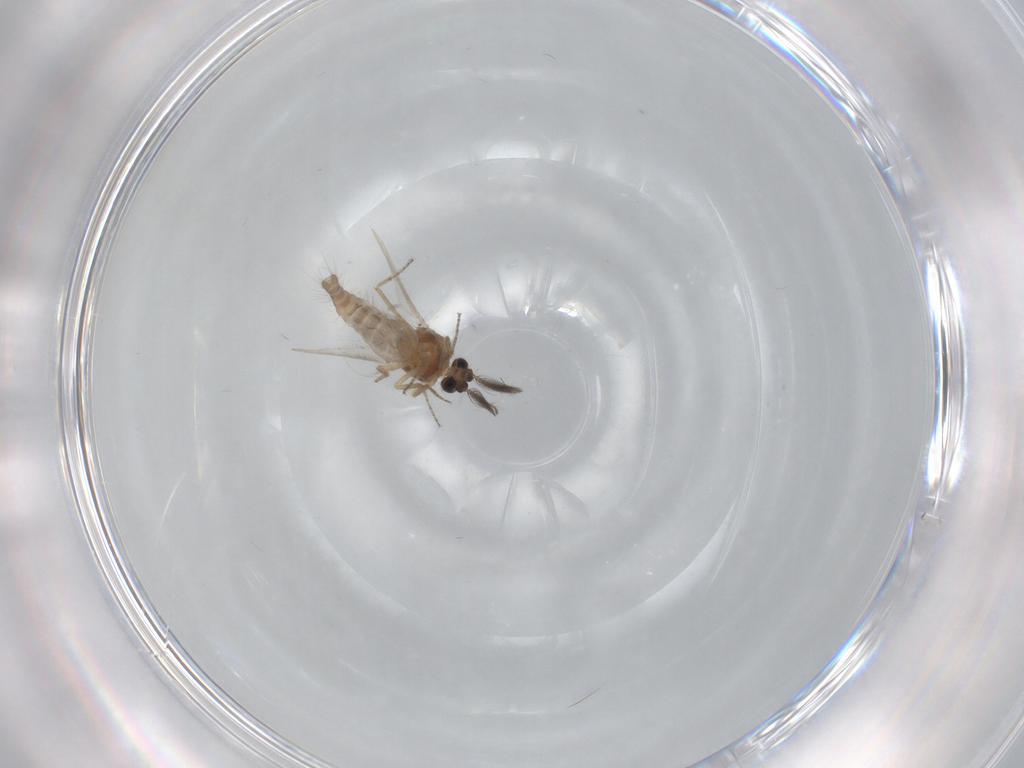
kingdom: Animalia
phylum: Arthropoda
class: Insecta
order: Diptera
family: Ceratopogonidae
